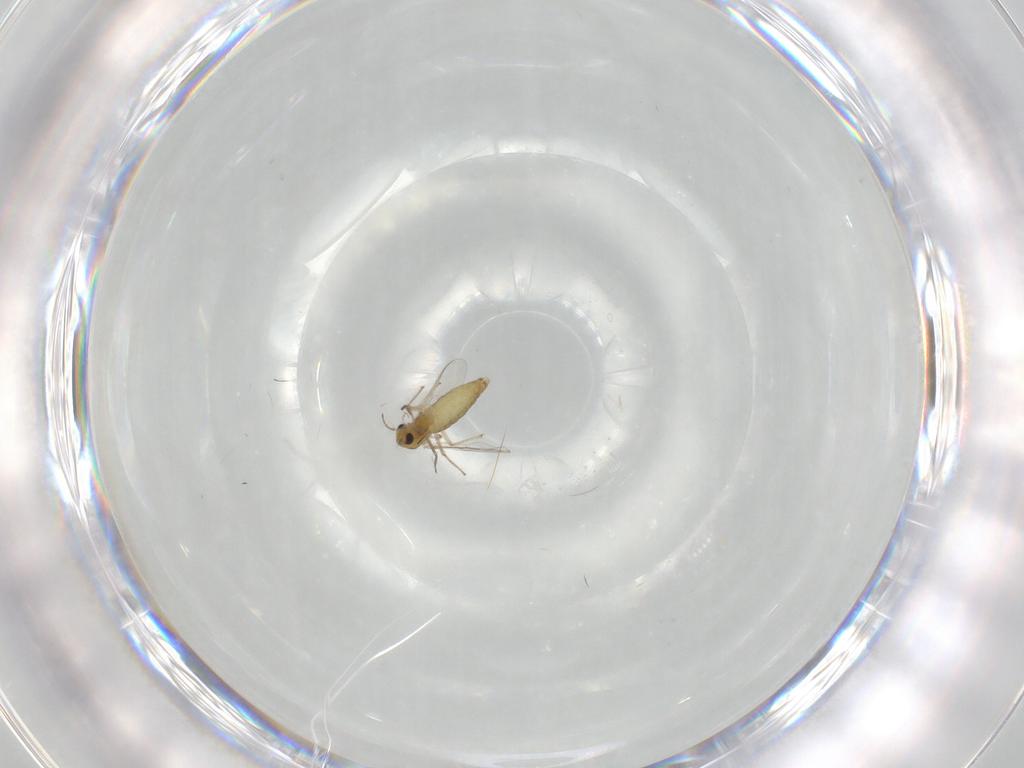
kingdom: Animalia
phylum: Arthropoda
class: Insecta
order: Diptera
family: Chironomidae
